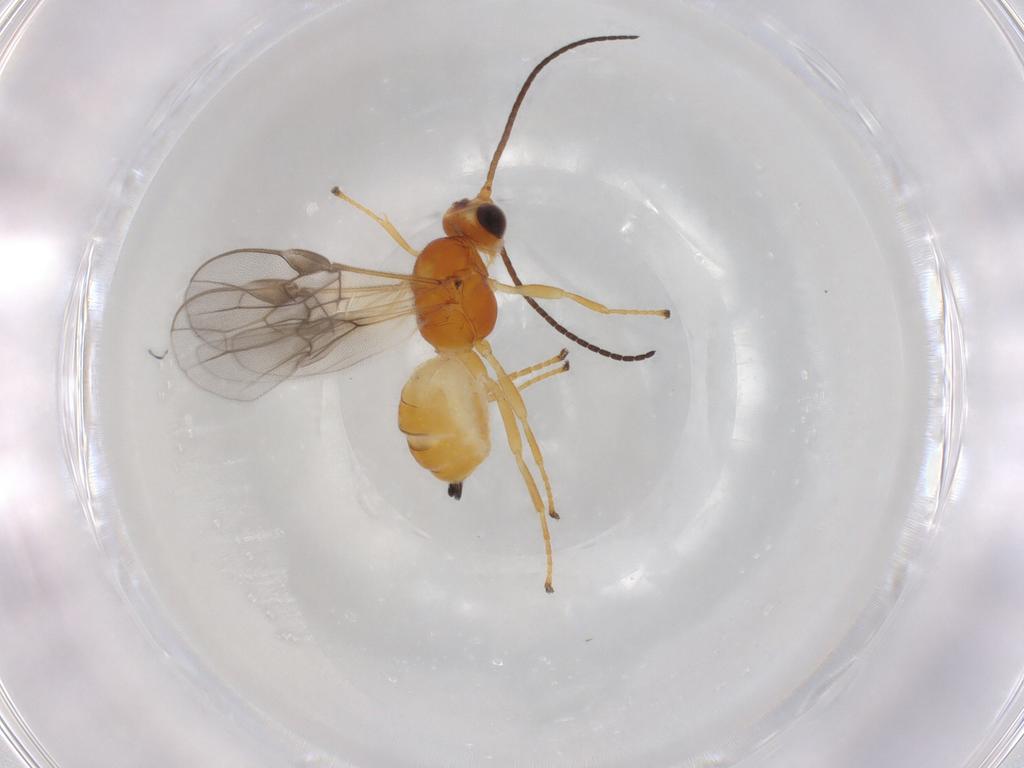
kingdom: Animalia
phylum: Arthropoda
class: Insecta
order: Hymenoptera
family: Braconidae
